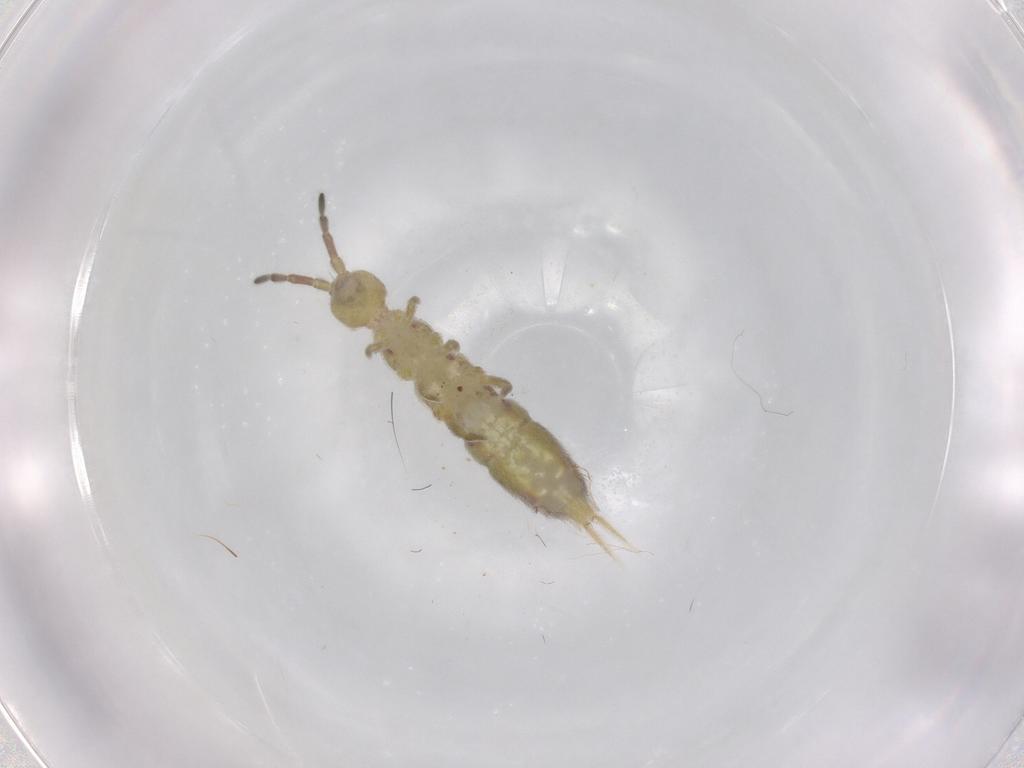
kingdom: Animalia
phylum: Arthropoda
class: Collembola
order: Entomobryomorpha
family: Isotomidae
